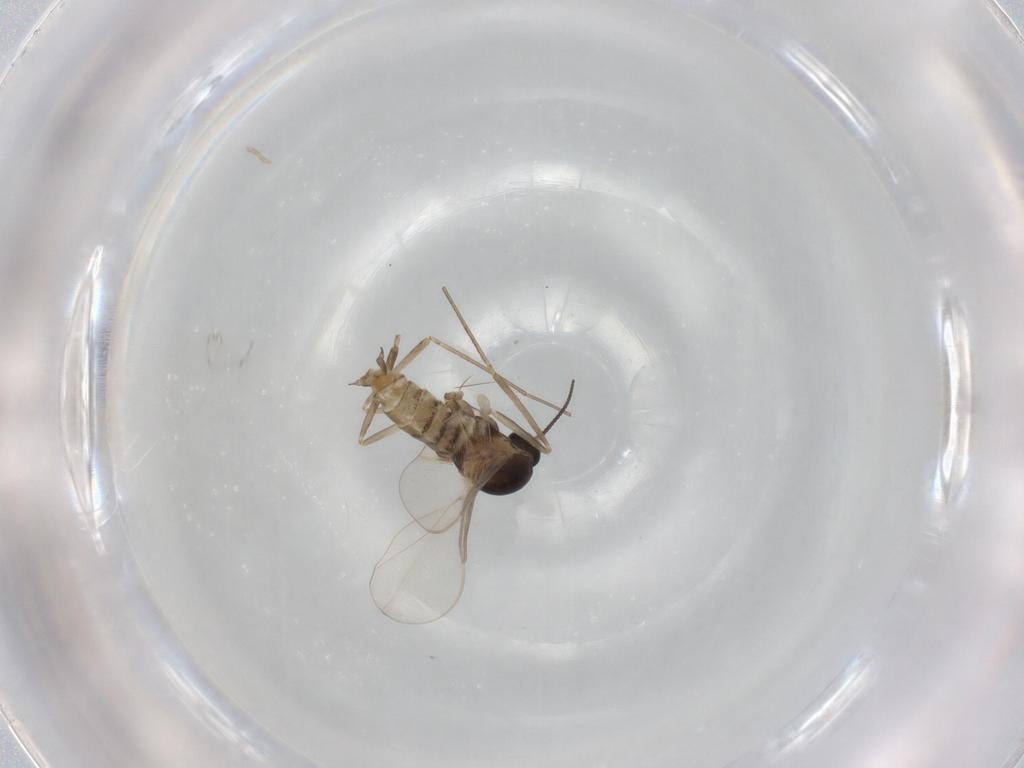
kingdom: Animalia
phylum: Arthropoda
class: Insecta
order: Diptera
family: Cecidomyiidae
